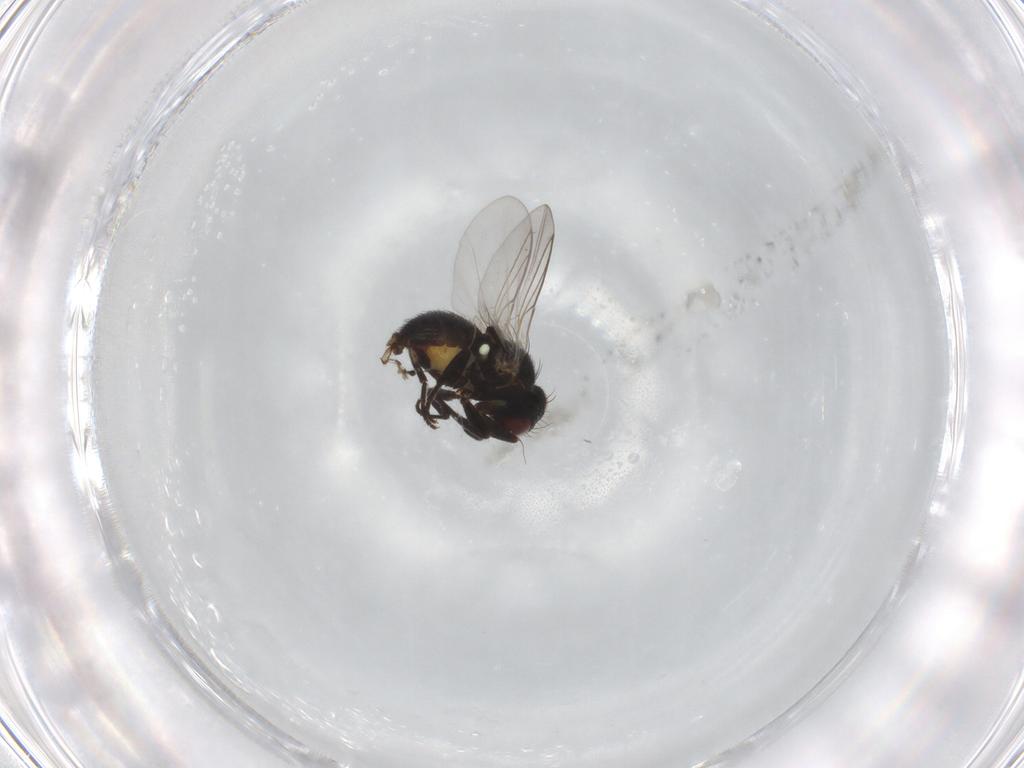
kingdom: Animalia
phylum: Arthropoda
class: Insecta
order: Diptera
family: Agromyzidae
